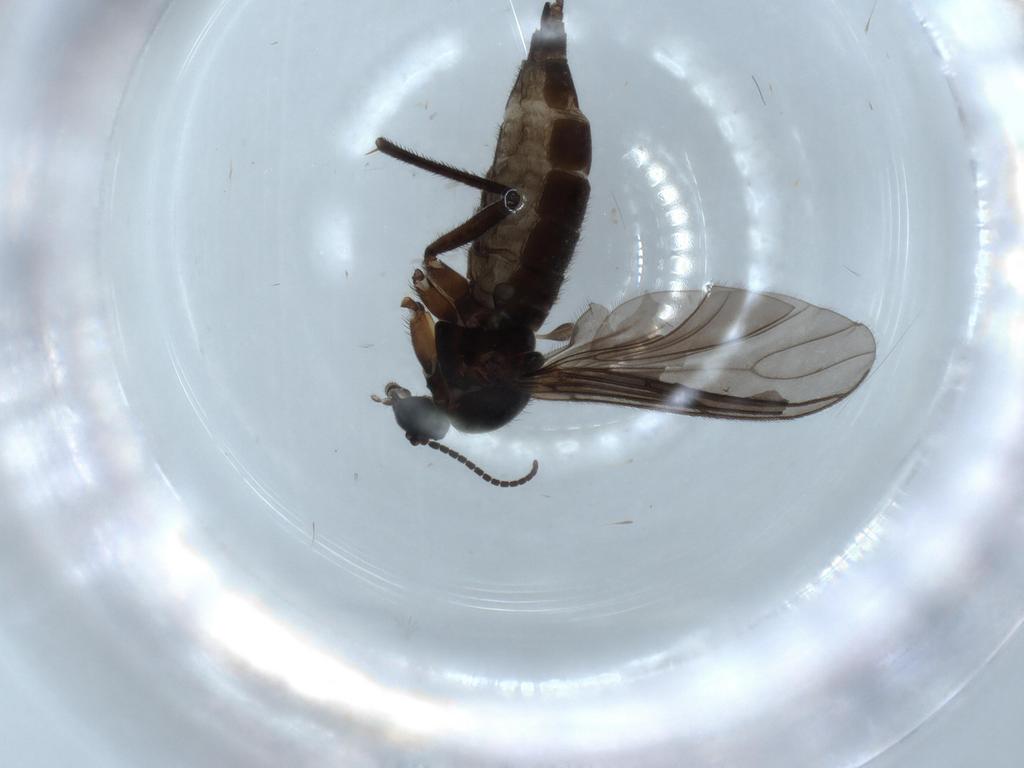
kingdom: Animalia
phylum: Arthropoda
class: Insecta
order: Diptera
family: Sciaridae
